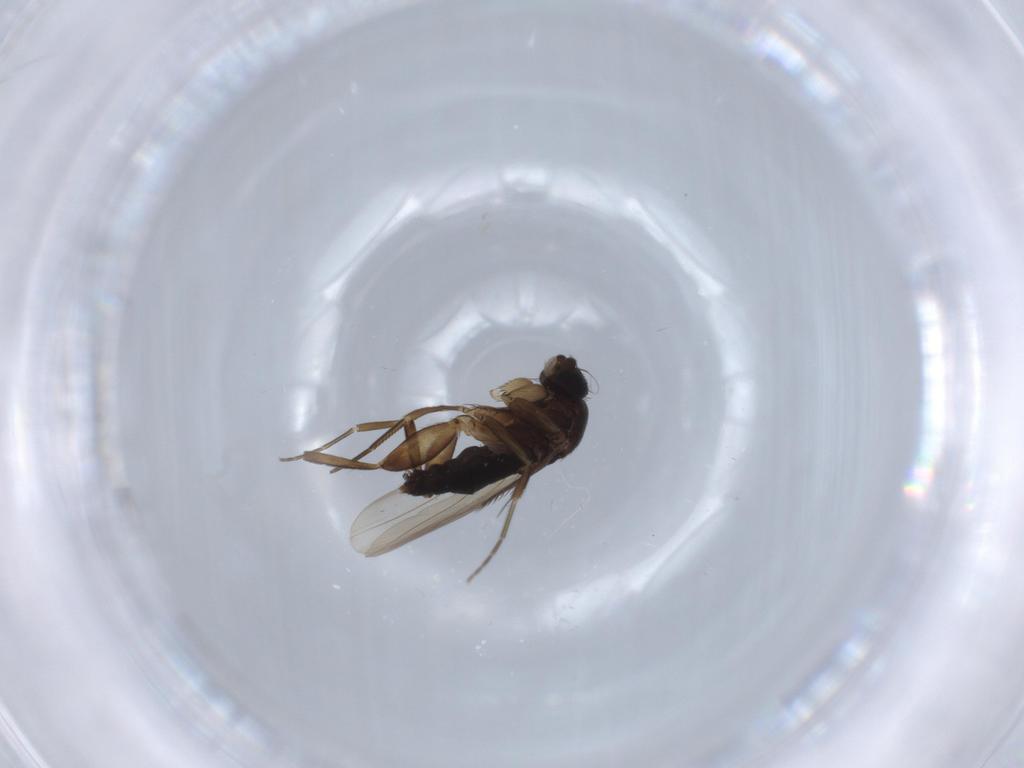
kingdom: Animalia
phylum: Arthropoda
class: Insecta
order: Diptera
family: Phoridae
